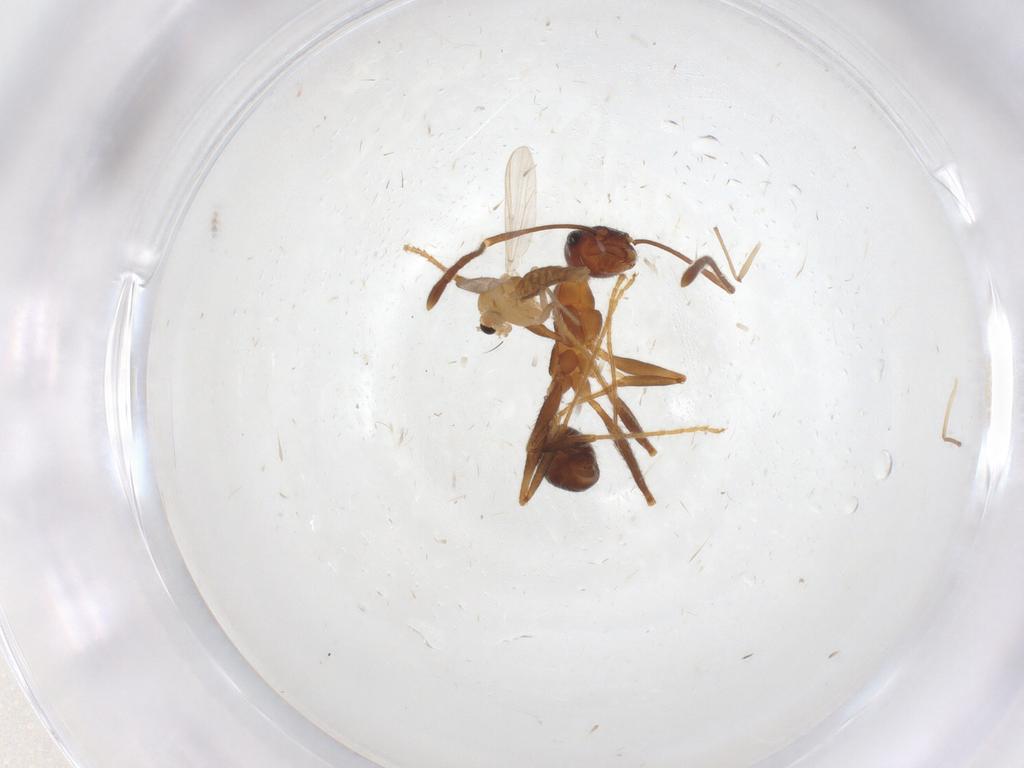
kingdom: Animalia
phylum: Arthropoda
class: Insecta
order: Diptera
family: Chironomidae
